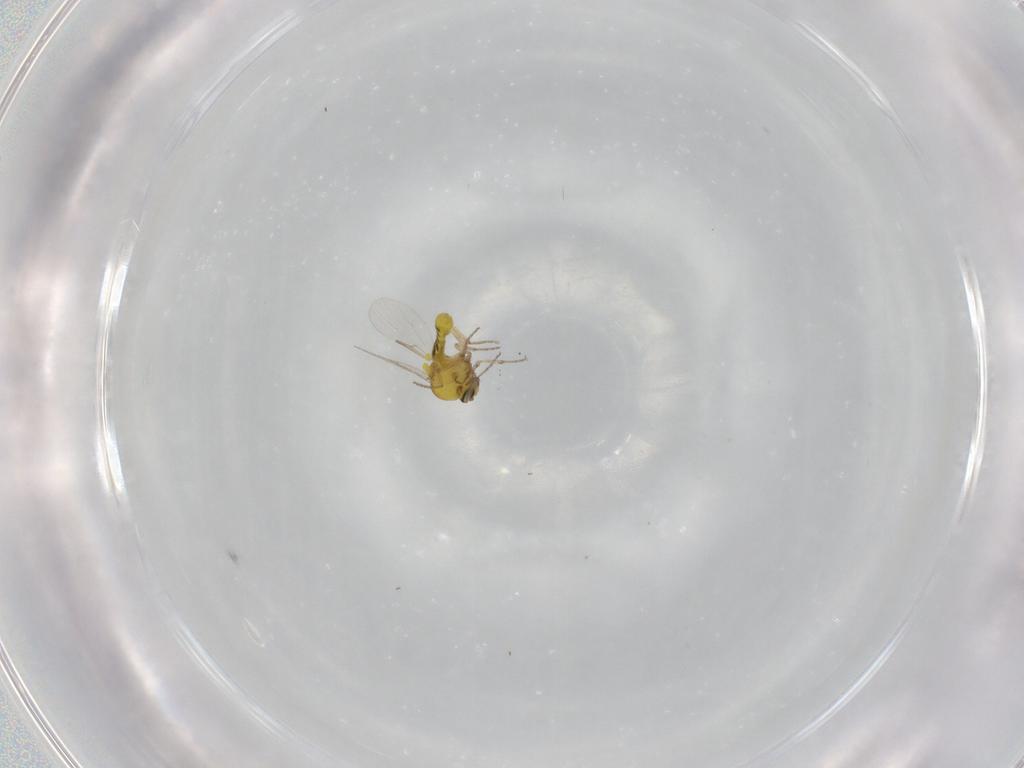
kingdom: Animalia
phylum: Arthropoda
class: Insecta
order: Diptera
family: Ceratopogonidae
